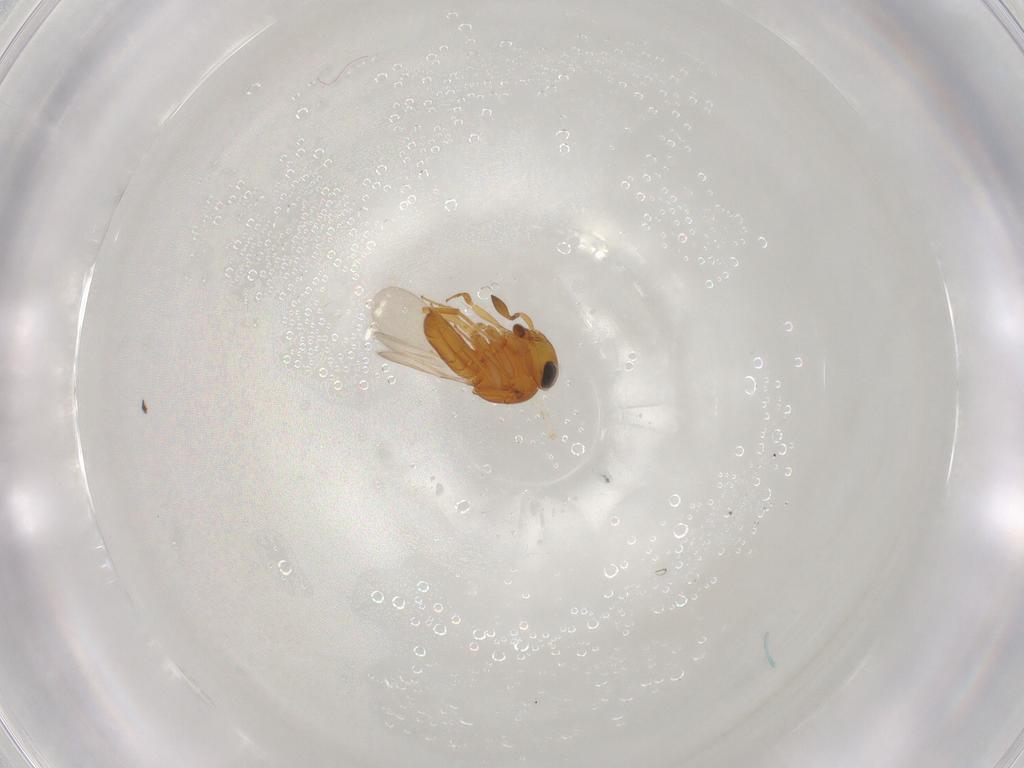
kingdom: Animalia
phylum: Arthropoda
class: Insecta
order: Hymenoptera
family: Scelionidae
